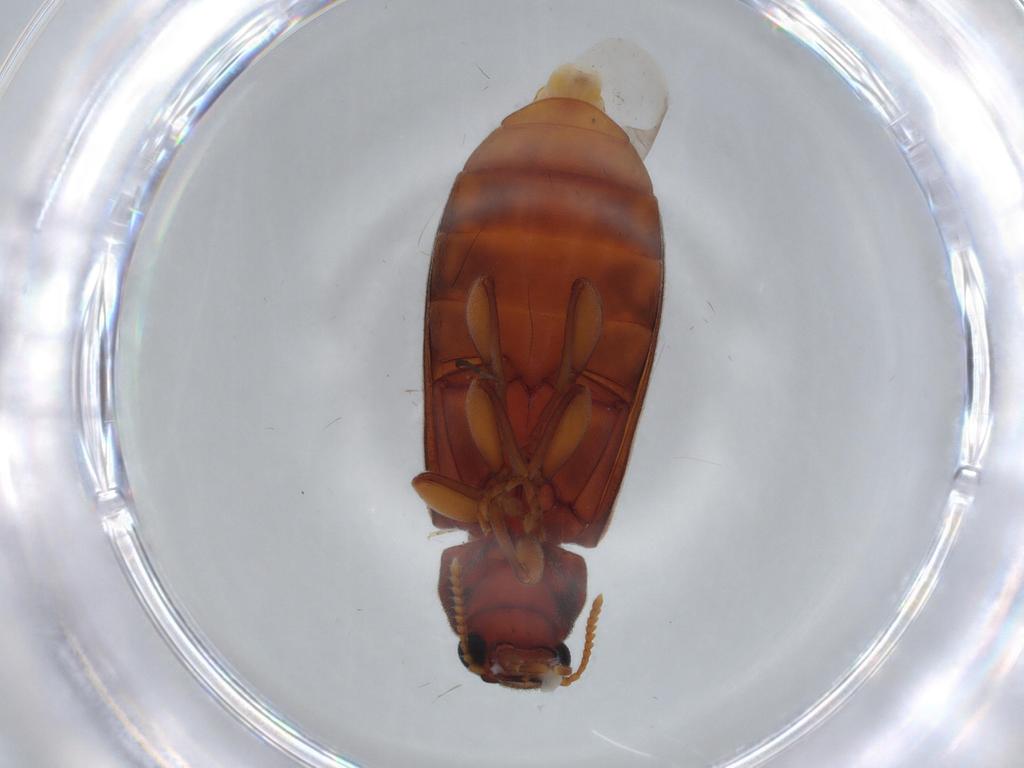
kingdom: Animalia
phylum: Arthropoda
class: Insecta
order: Coleoptera
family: Mycteridae
